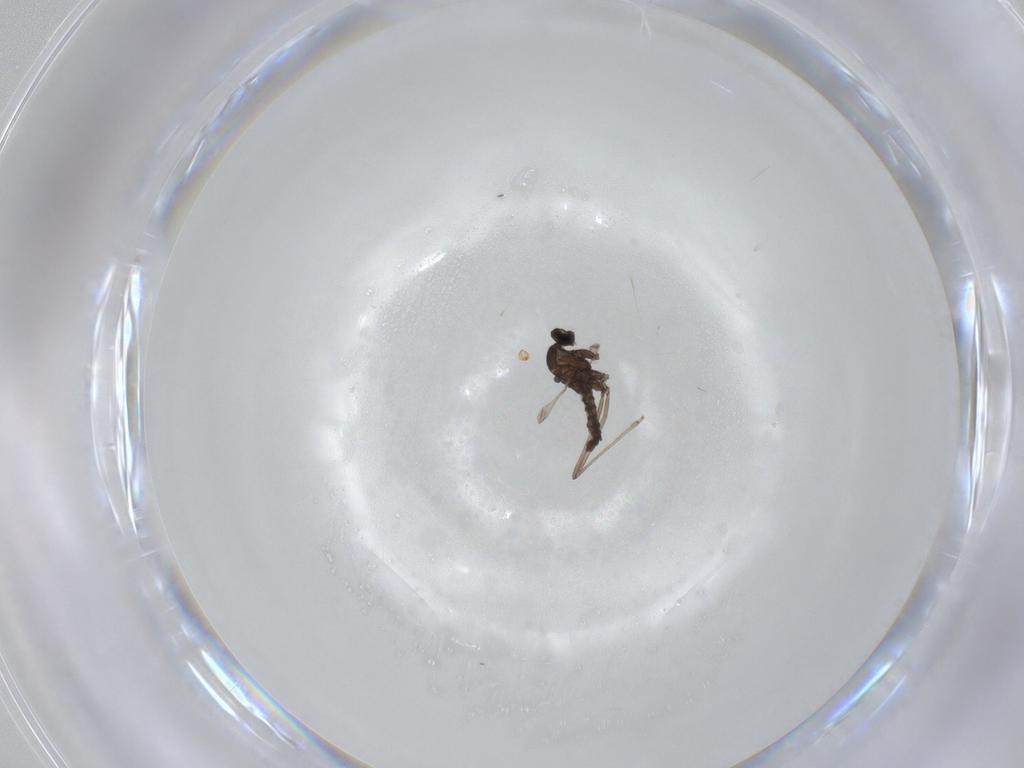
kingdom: Animalia
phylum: Arthropoda
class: Insecta
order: Diptera
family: Cecidomyiidae
